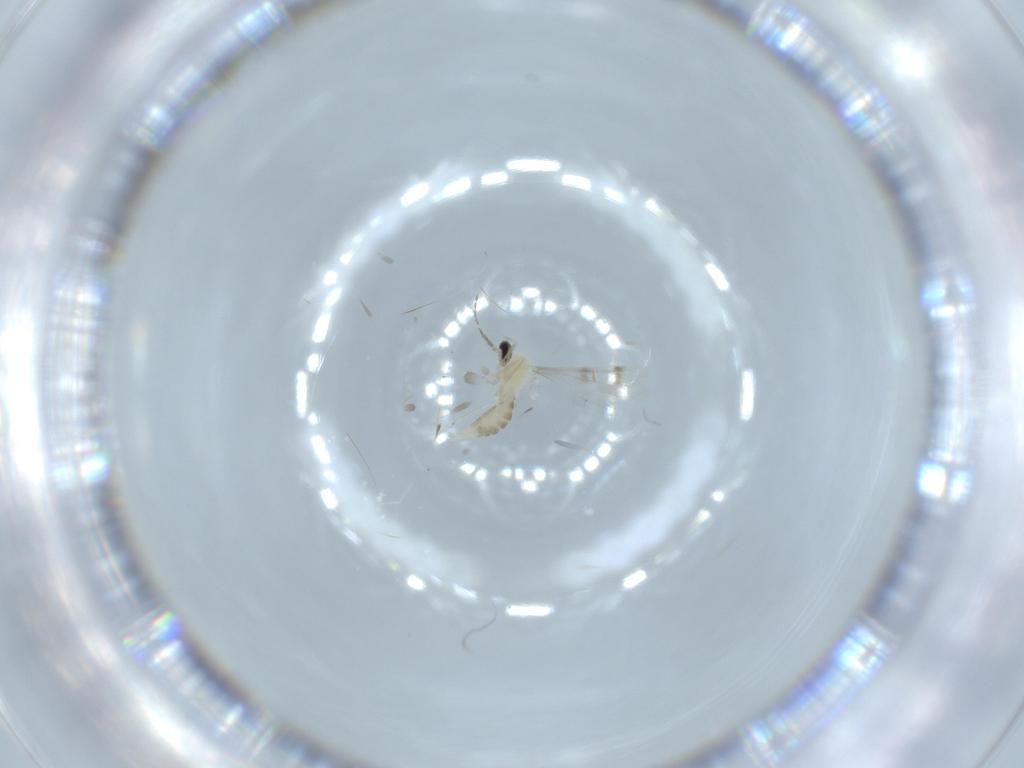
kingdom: Animalia
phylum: Arthropoda
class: Insecta
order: Diptera
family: Cecidomyiidae
